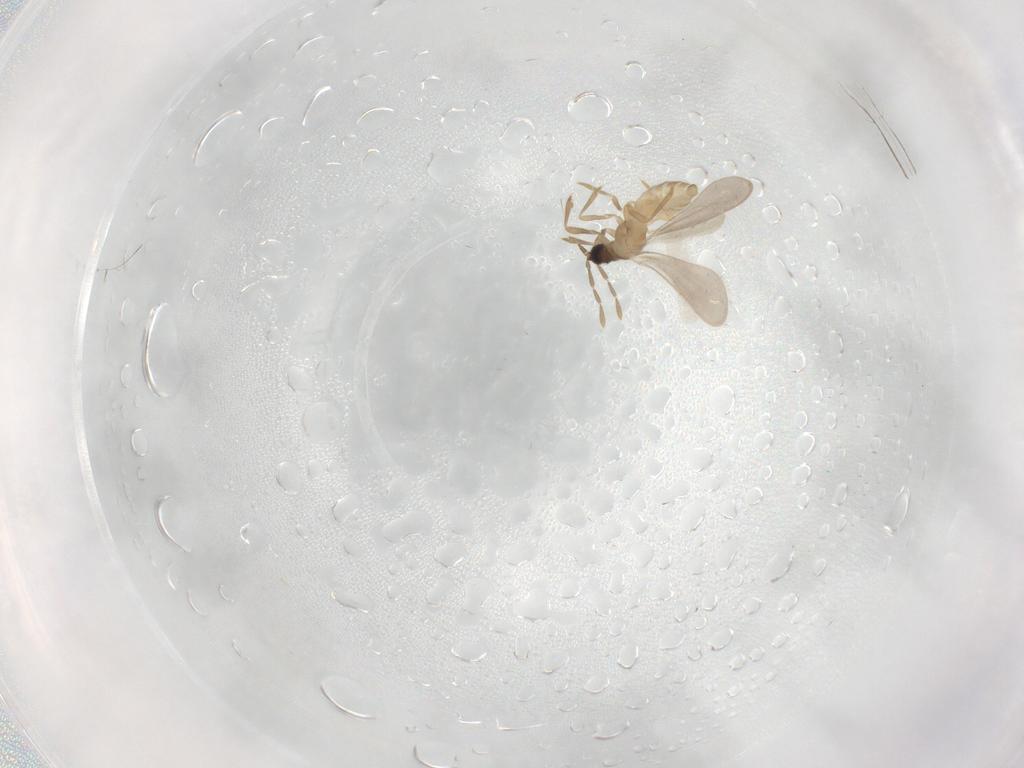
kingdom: Animalia
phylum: Arthropoda
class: Insecta
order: Hemiptera
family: Enicocephalidae
